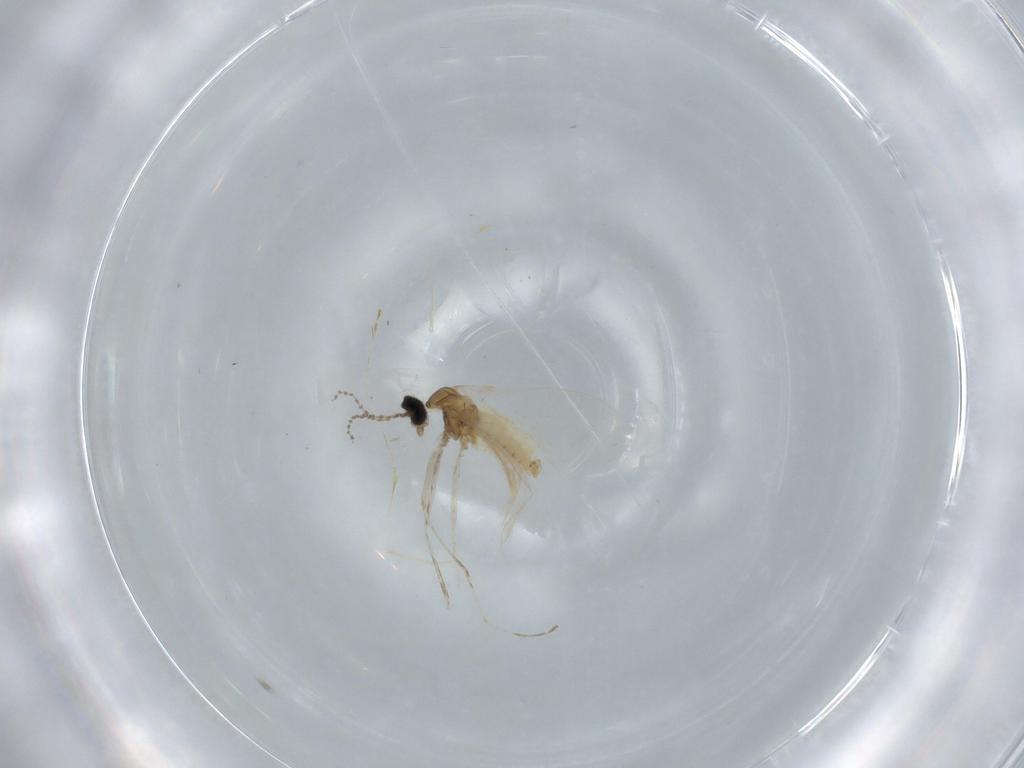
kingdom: Animalia
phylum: Arthropoda
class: Insecta
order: Diptera
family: Cecidomyiidae
